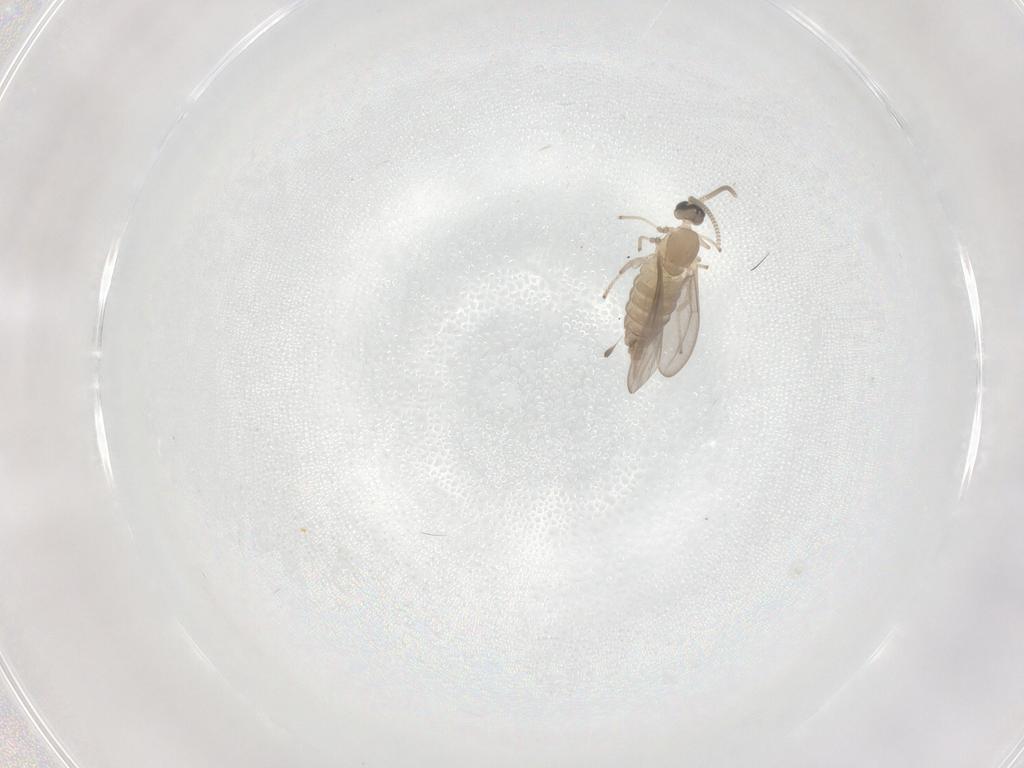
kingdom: Animalia
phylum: Arthropoda
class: Insecta
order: Diptera
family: Cecidomyiidae
